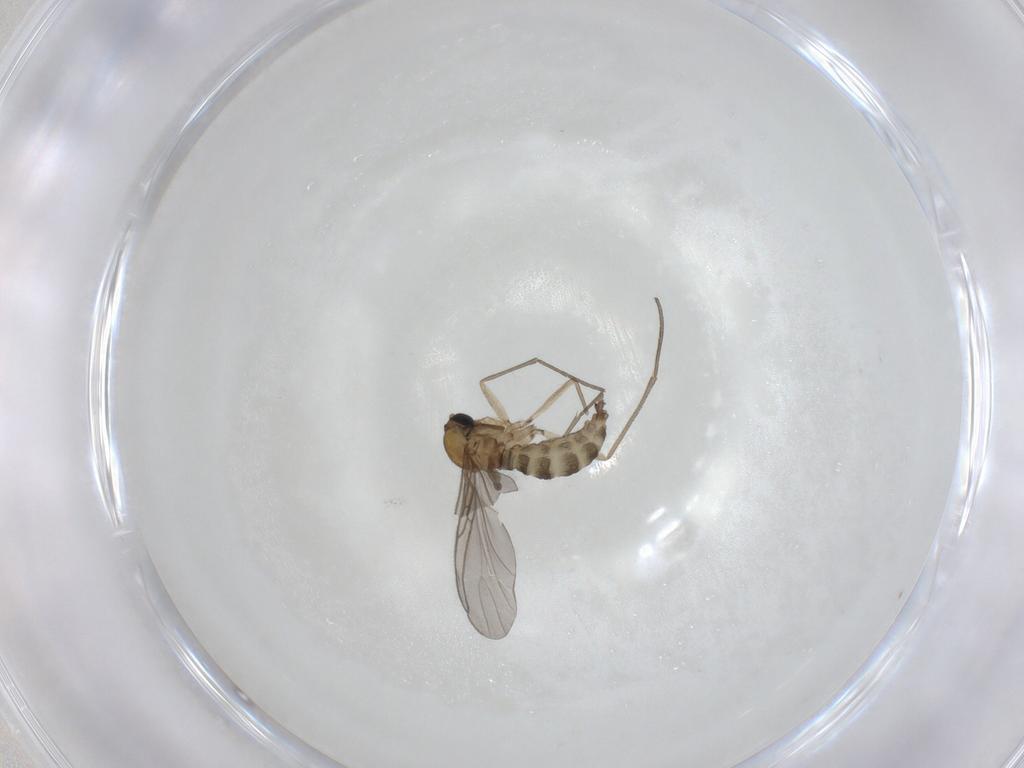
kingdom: Animalia
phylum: Arthropoda
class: Insecta
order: Diptera
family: Sciaridae
